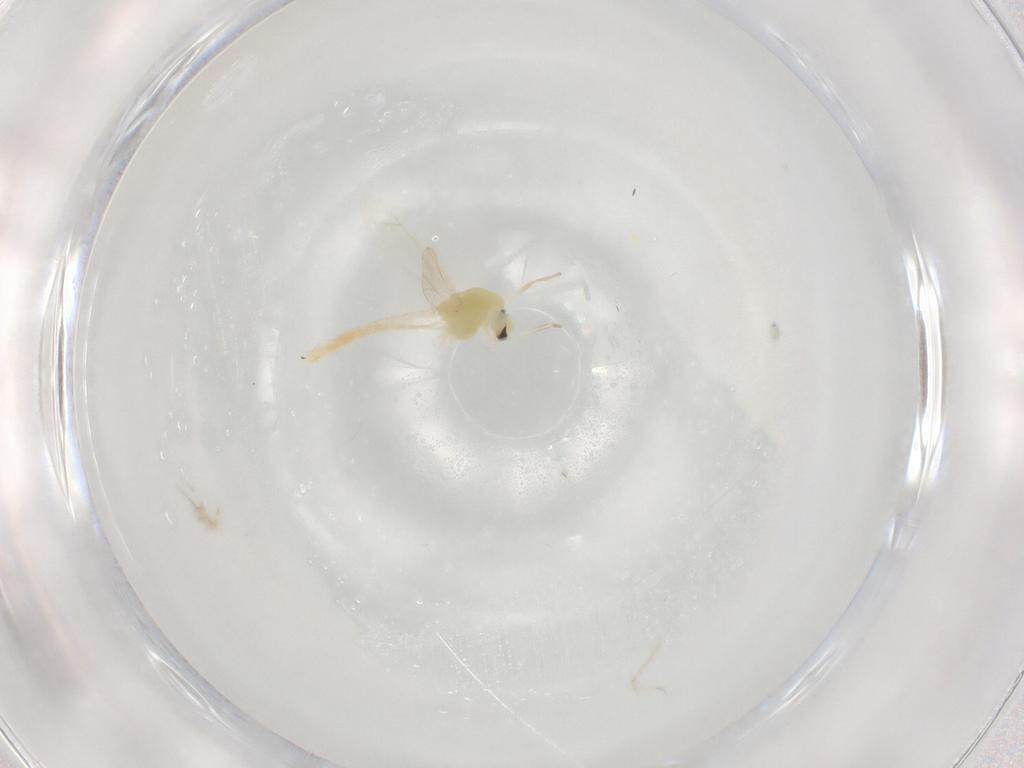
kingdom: Animalia
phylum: Arthropoda
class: Insecta
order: Diptera
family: Chironomidae
